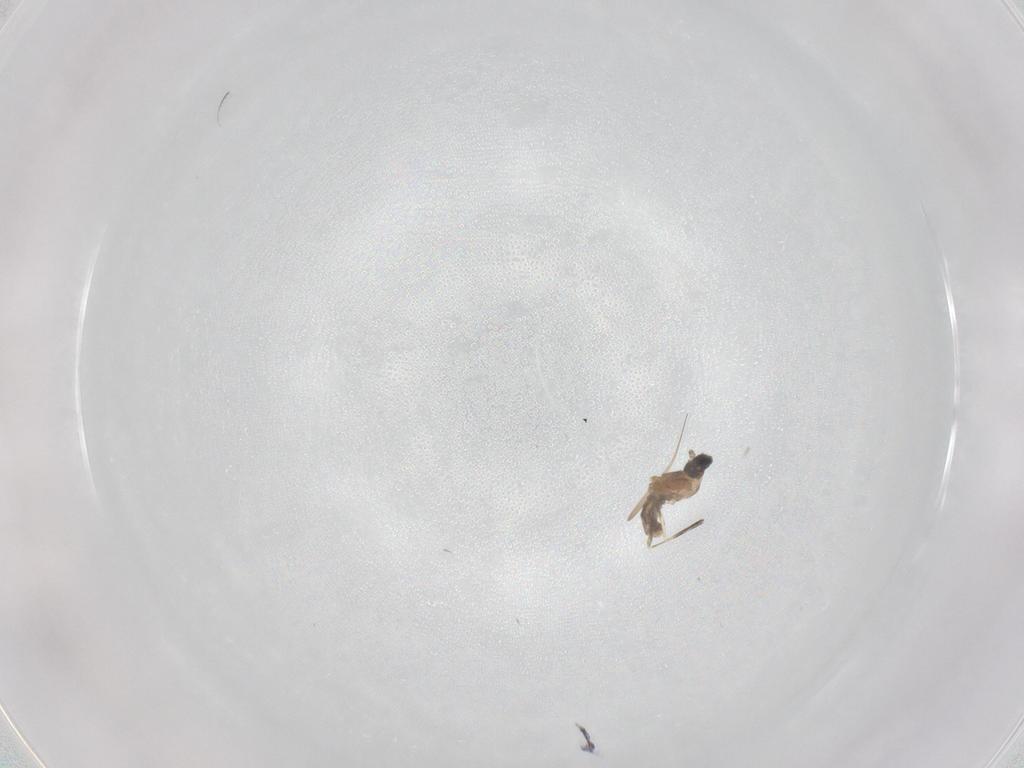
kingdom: Animalia
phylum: Arthropoda
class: Insecta
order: Diptera
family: Cecidomyiidae
